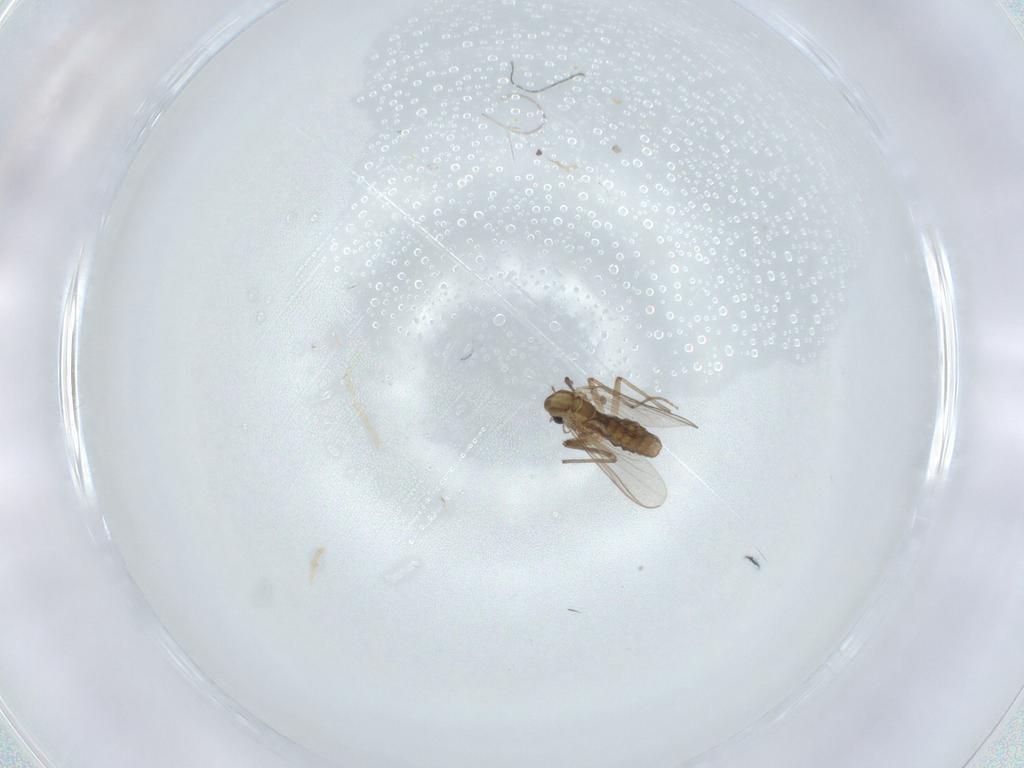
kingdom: Animalia
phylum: Arthropoda
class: Insecta
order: Diptera
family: Chironomidae
